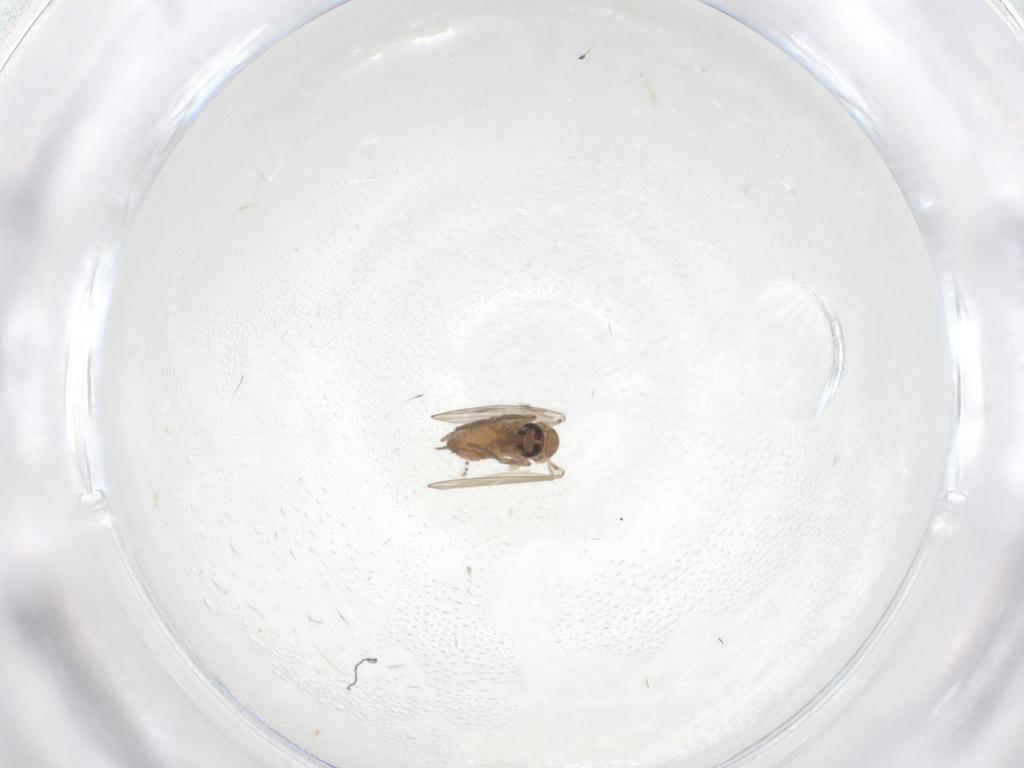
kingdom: Animalia
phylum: Arthropoda
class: Insecta
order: Diptera
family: Psychodidae
